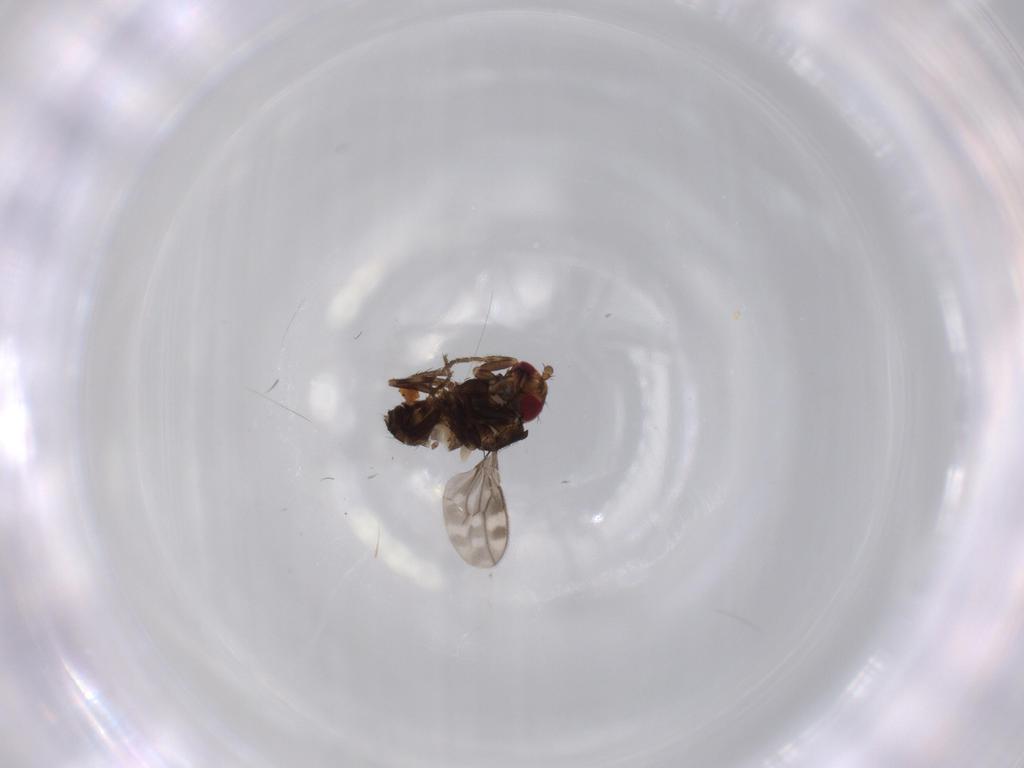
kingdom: Animalia
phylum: Arthropoda
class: Insecta
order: Diptera
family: Sphaeroceridae
